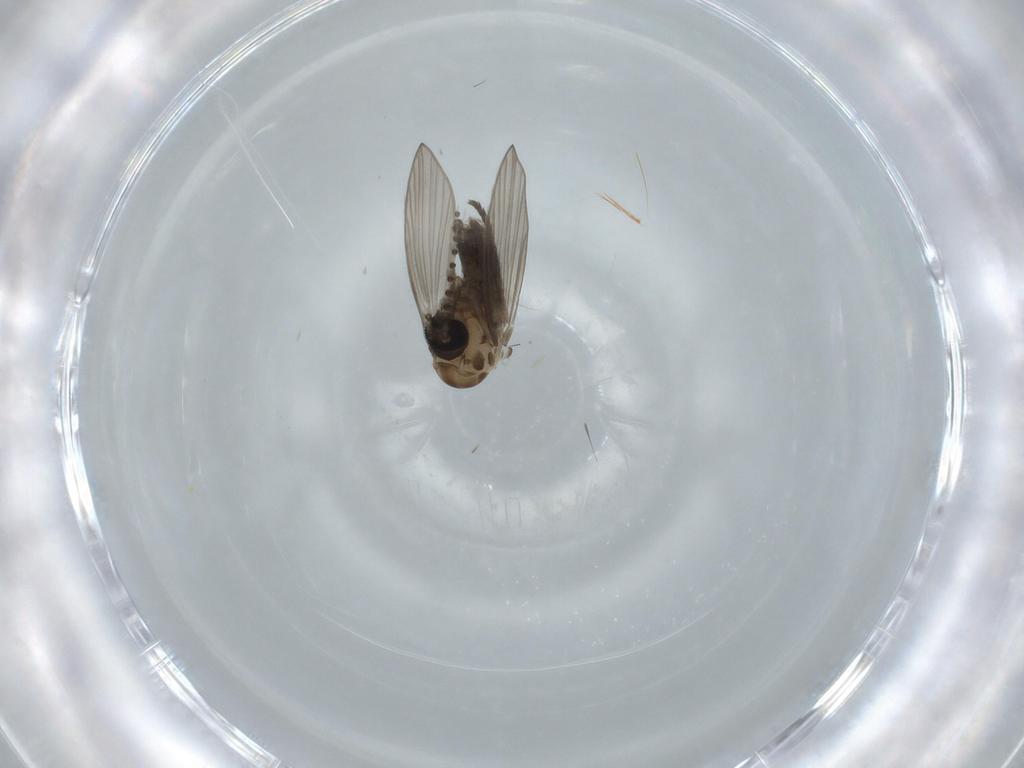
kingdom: Animalia
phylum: Arthropoda
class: Insecta
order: Diptera
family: Psychodidae
